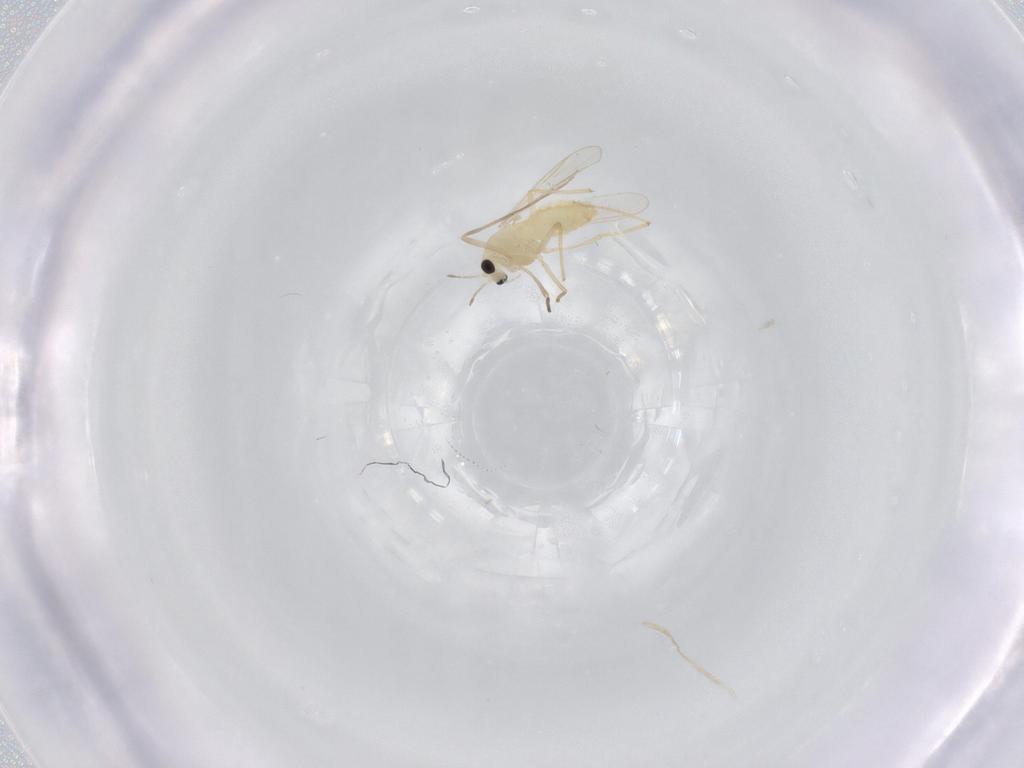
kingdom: Animalia
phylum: Arthropoda
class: Insecta
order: Diptera
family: Chironomidae
